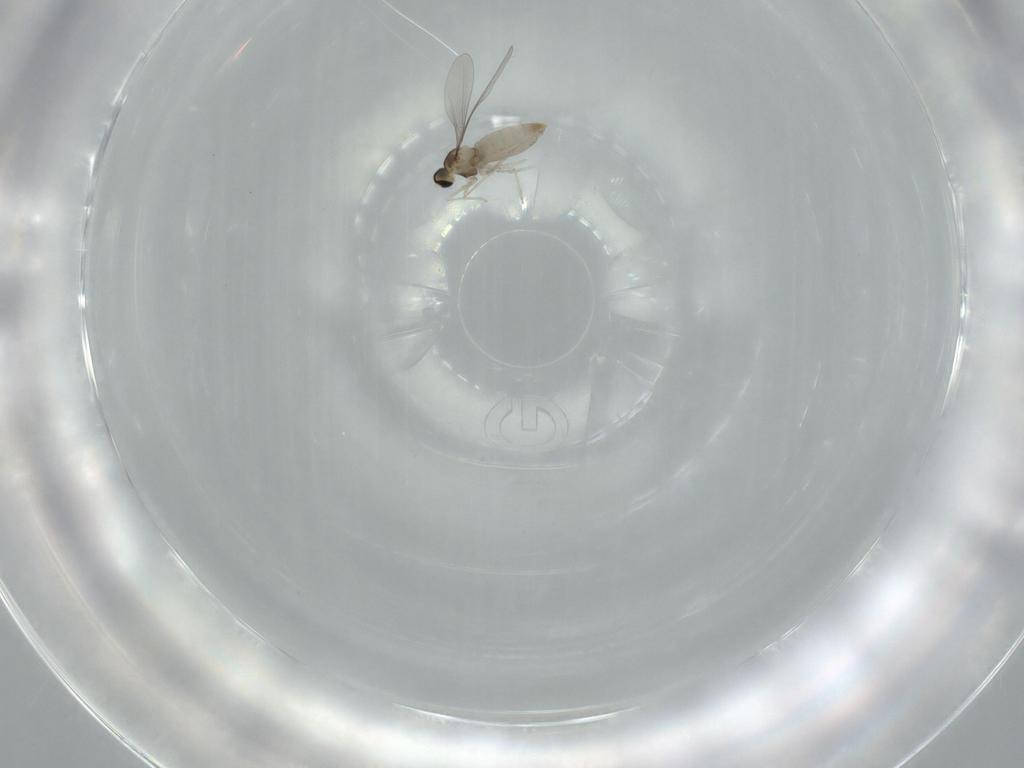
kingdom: Animalia
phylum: Arthropoda
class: Insecta
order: Diptera
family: Cecidomyiidae
